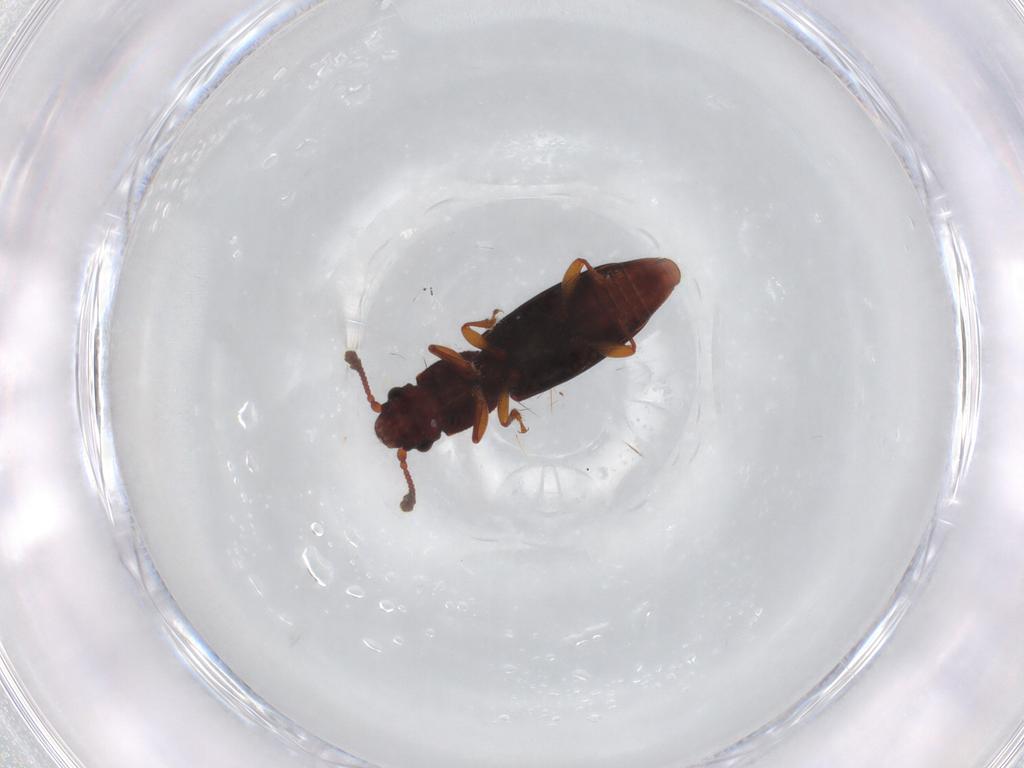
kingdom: Animalia
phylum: Arthropoda
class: Insecta
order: Coleoptera
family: Monotomidae
